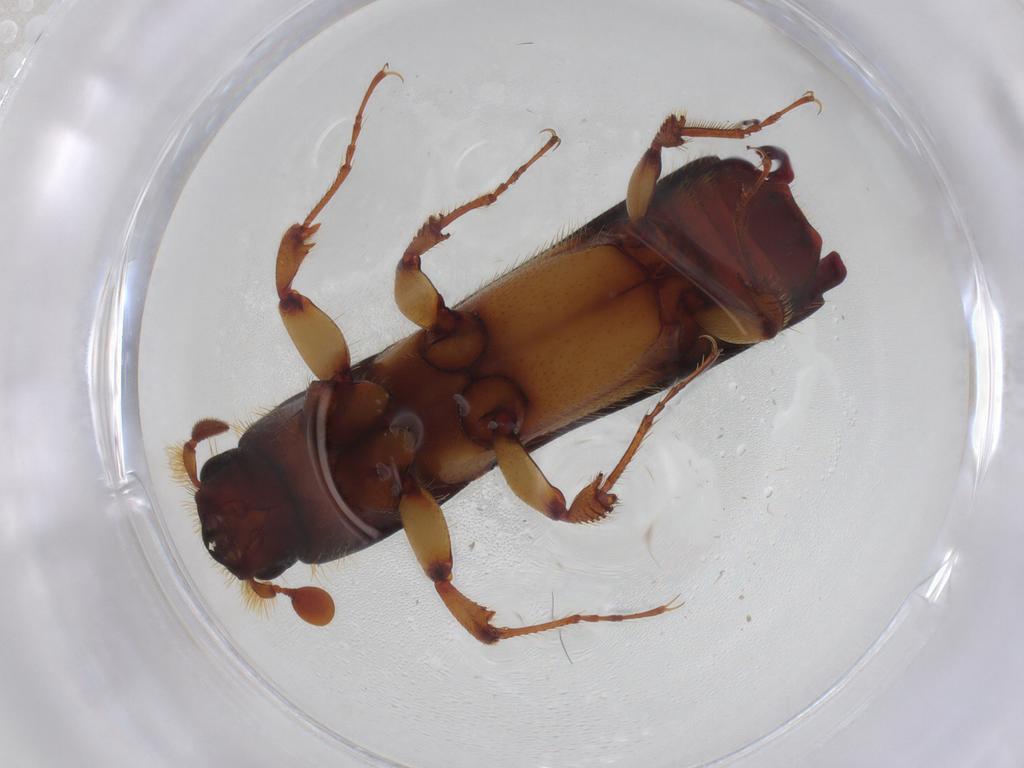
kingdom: Animalia
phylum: Arthropoda
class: Insecta
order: Coleoptera
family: Curculionidae
